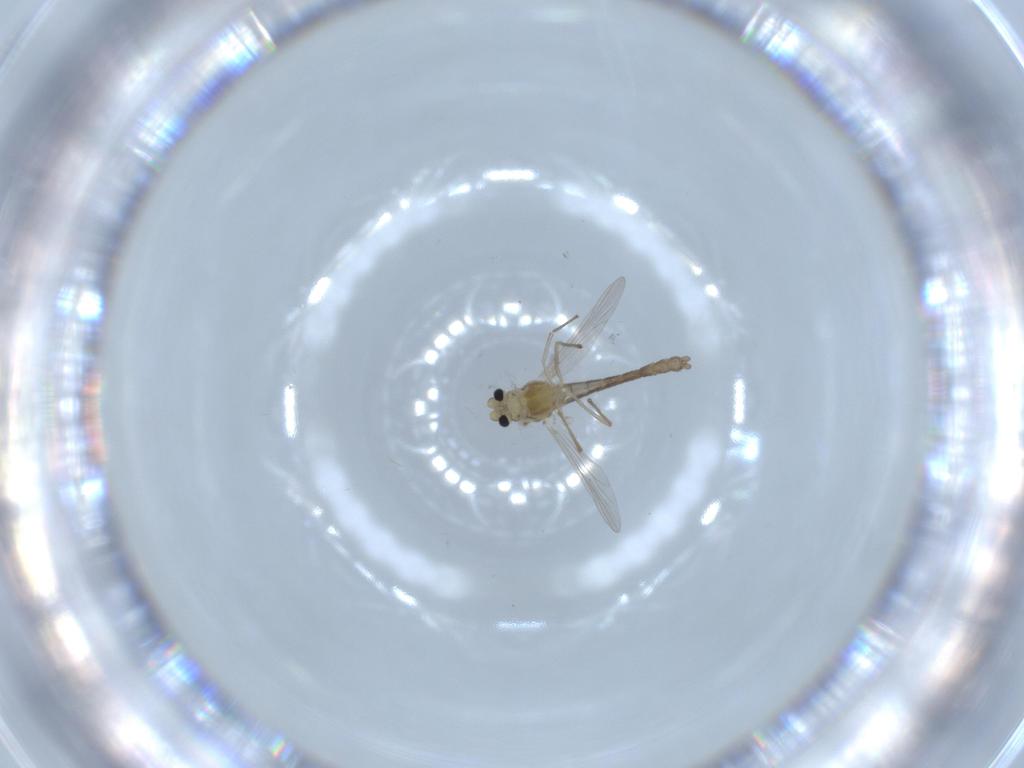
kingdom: Animalia
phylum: Arthropoda
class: Insecta
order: Diptera
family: Chironomidae
